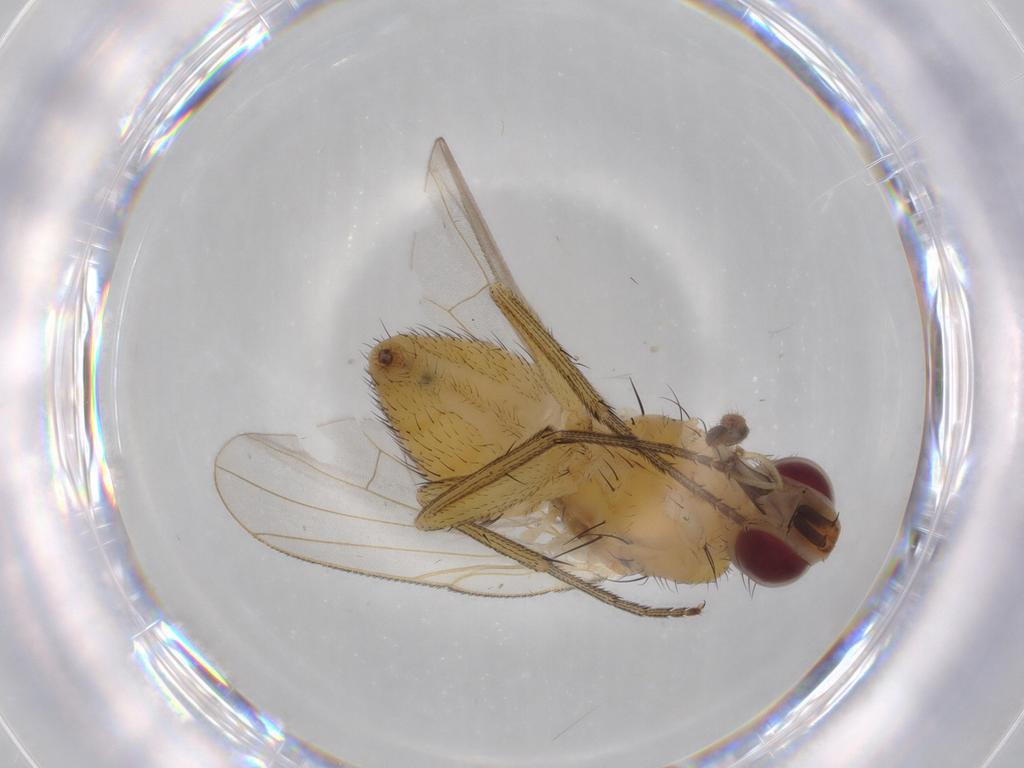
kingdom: Animalia
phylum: Arthropoda
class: Insecta
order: Diptera
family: Muscidae
